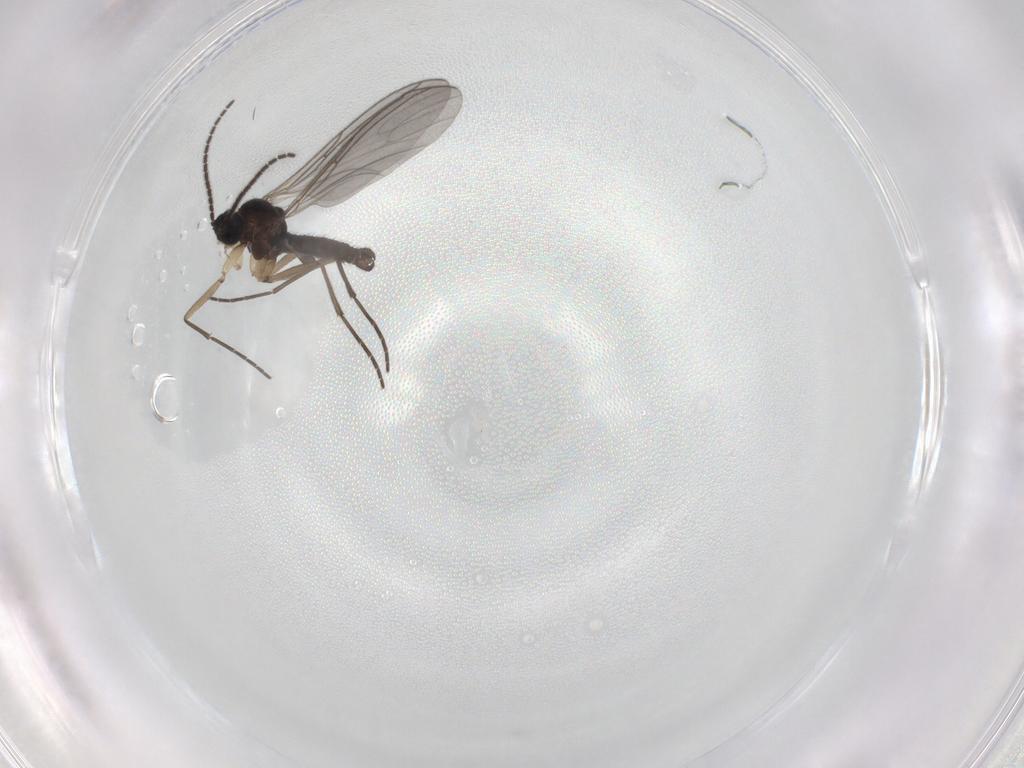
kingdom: Animalia
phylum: Arthropoda
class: Insecta
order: Diptera
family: Sciaridae
